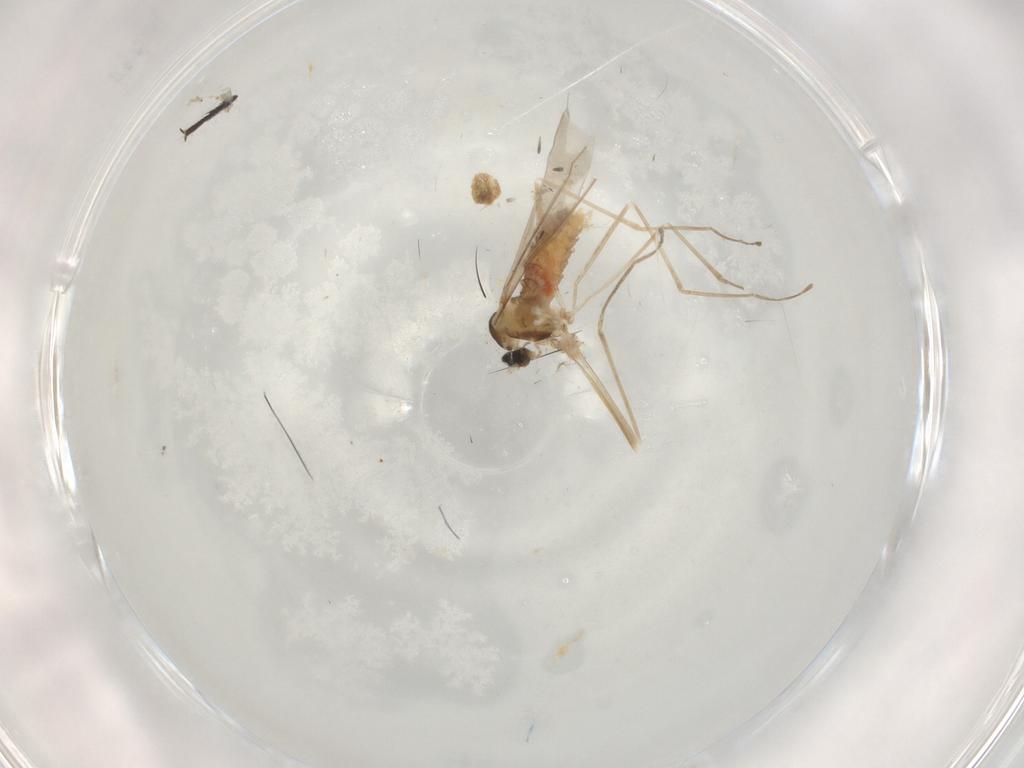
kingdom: Animalia
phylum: Arthropoda
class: Insecta
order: Diptera
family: Cecidomyiidae
